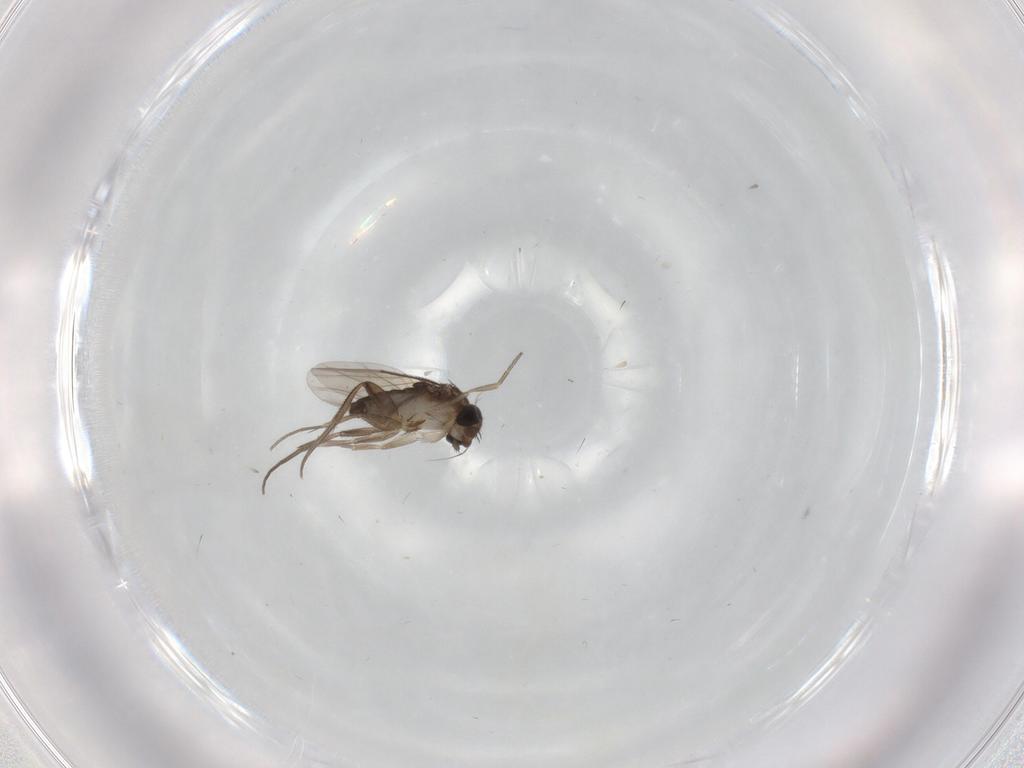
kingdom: Animalia
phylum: Arthropoda
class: Insecta
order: Diptera
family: Phoridae
